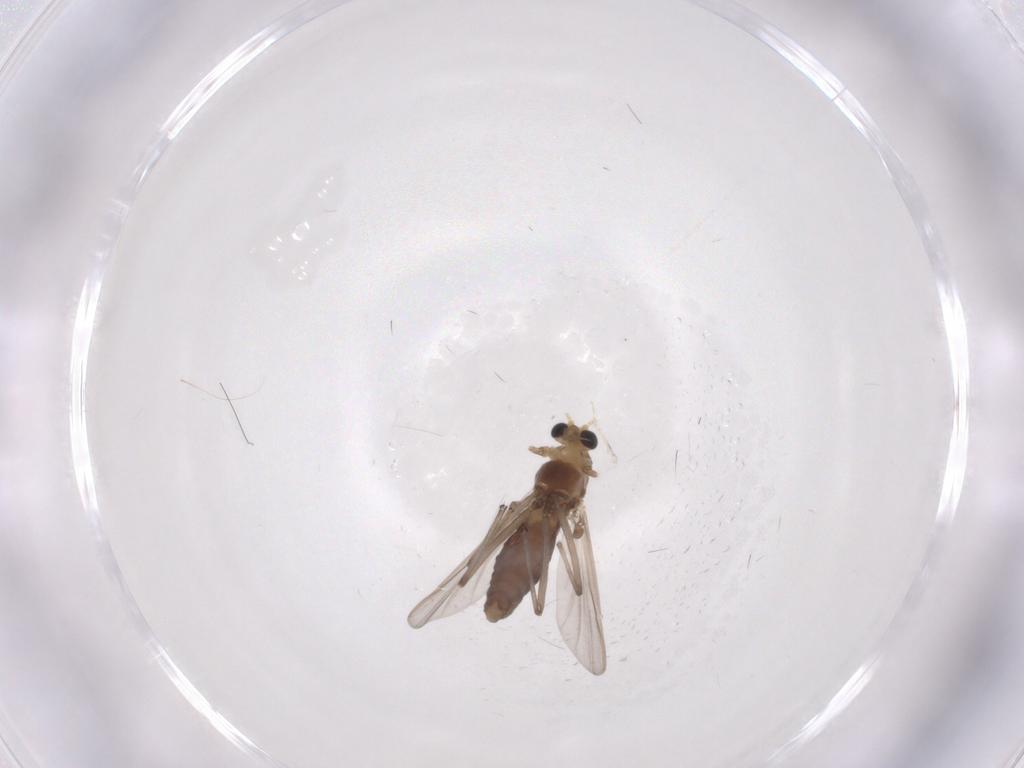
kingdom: Animalia
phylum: Arthropoda
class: Insecta
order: Diptera
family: Chironomidae
